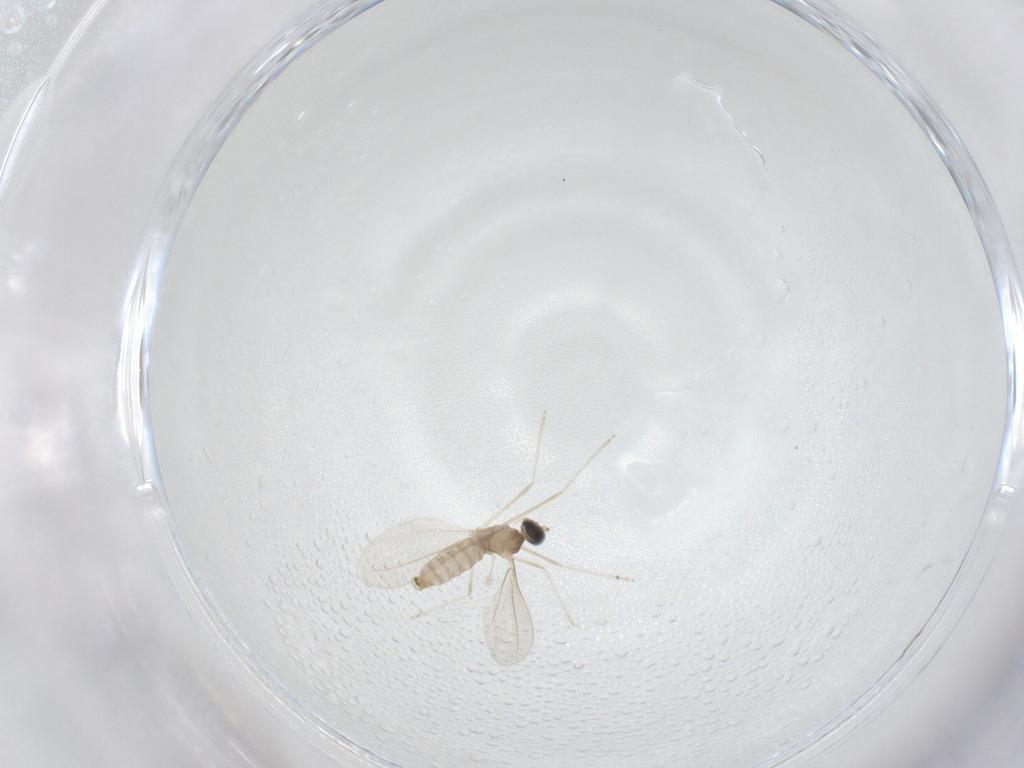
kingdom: Animalia
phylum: Arthropoda
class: Insecta
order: Diptera
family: Cecidomyiidae
